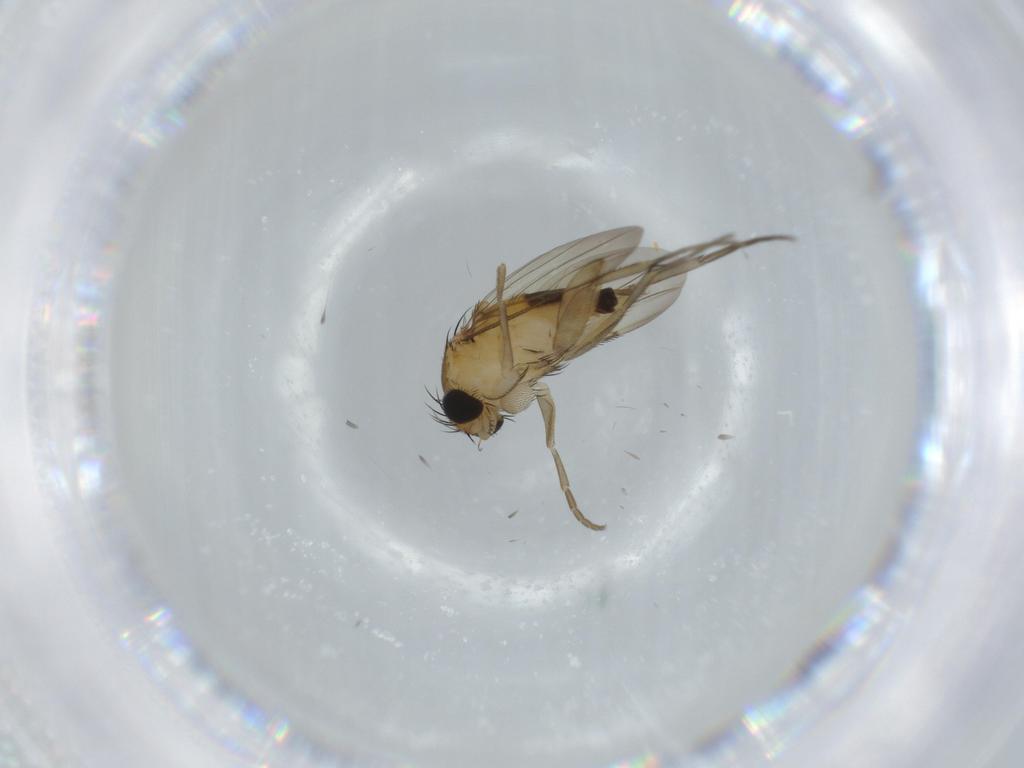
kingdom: Animalia
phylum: Arthropoda
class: Insecta
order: Diptera
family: Phoridae
